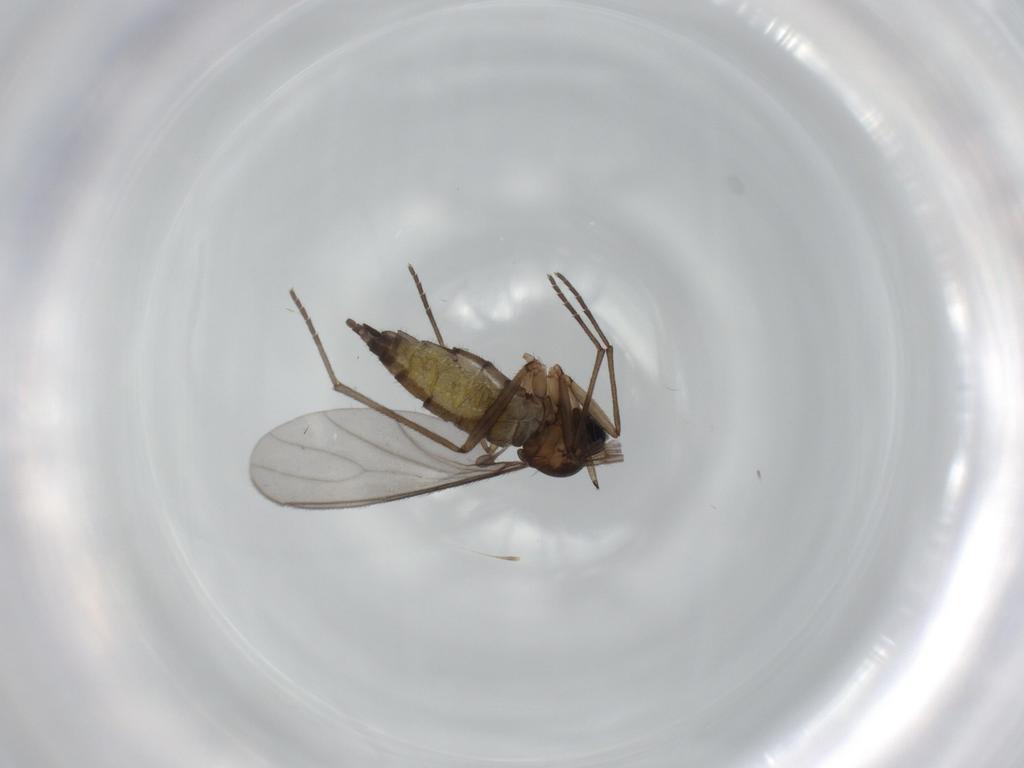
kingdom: Animalia
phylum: Arthropoda
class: Insecta
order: Diptera
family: Sciaridae
